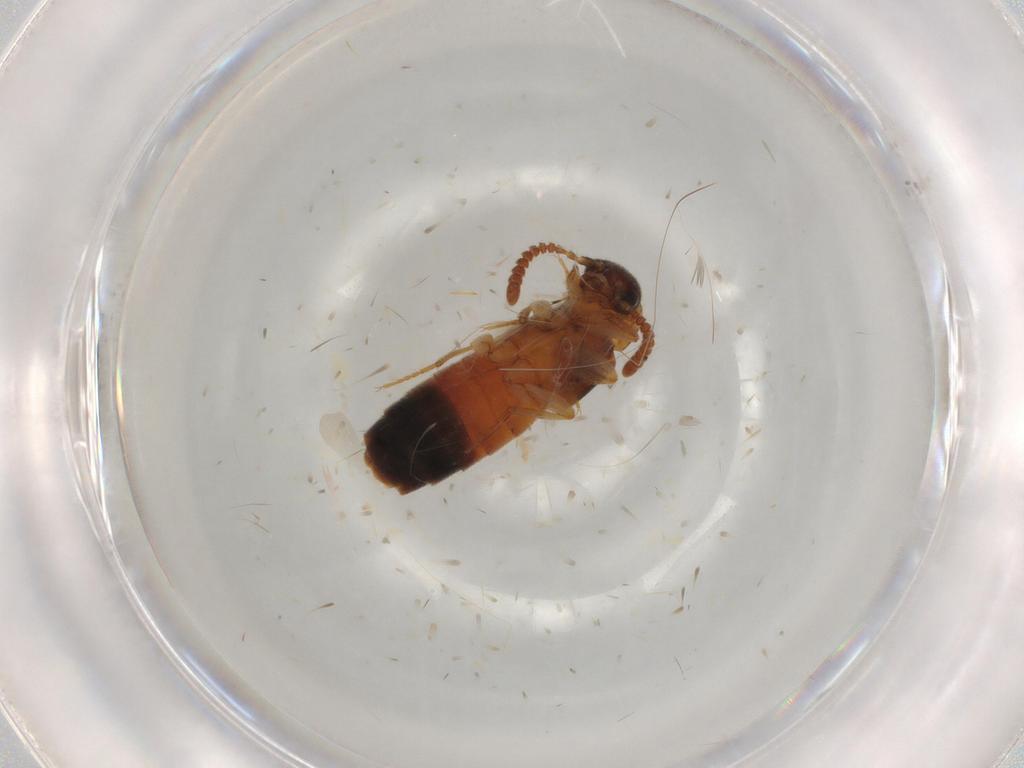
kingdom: Animalia
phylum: Arthropoda
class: Insecta
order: Coleoptera
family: Staphylinidae
